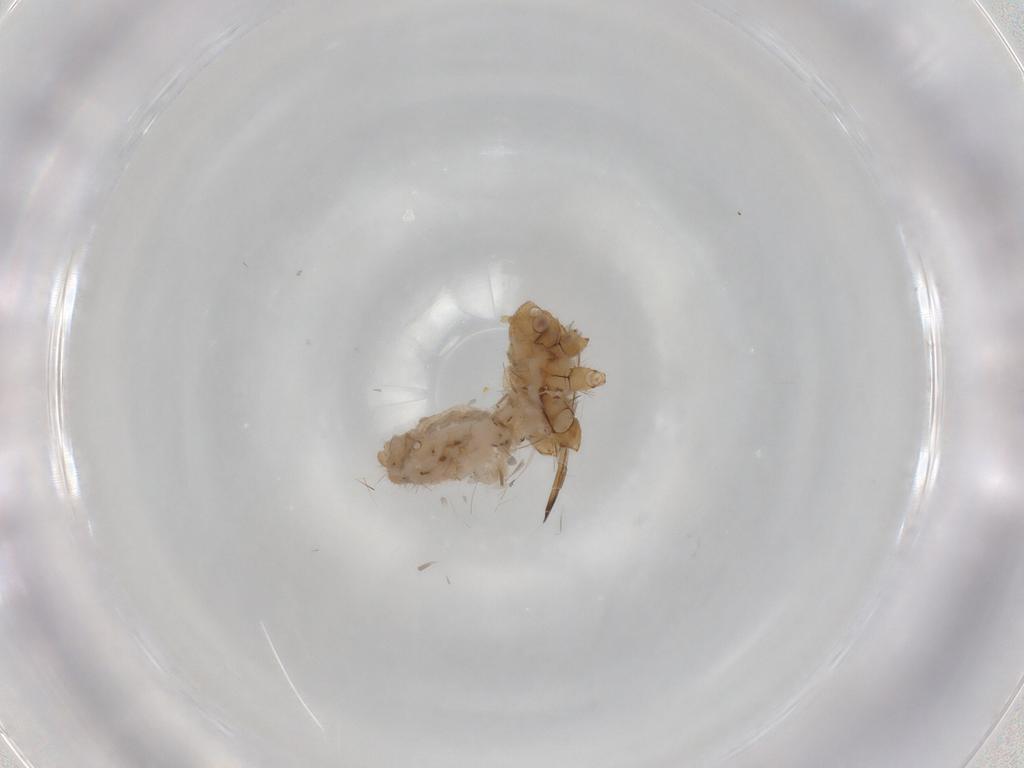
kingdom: Animalia
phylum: Arthropoda
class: Insecta
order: Hemiptera
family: Aphididae
